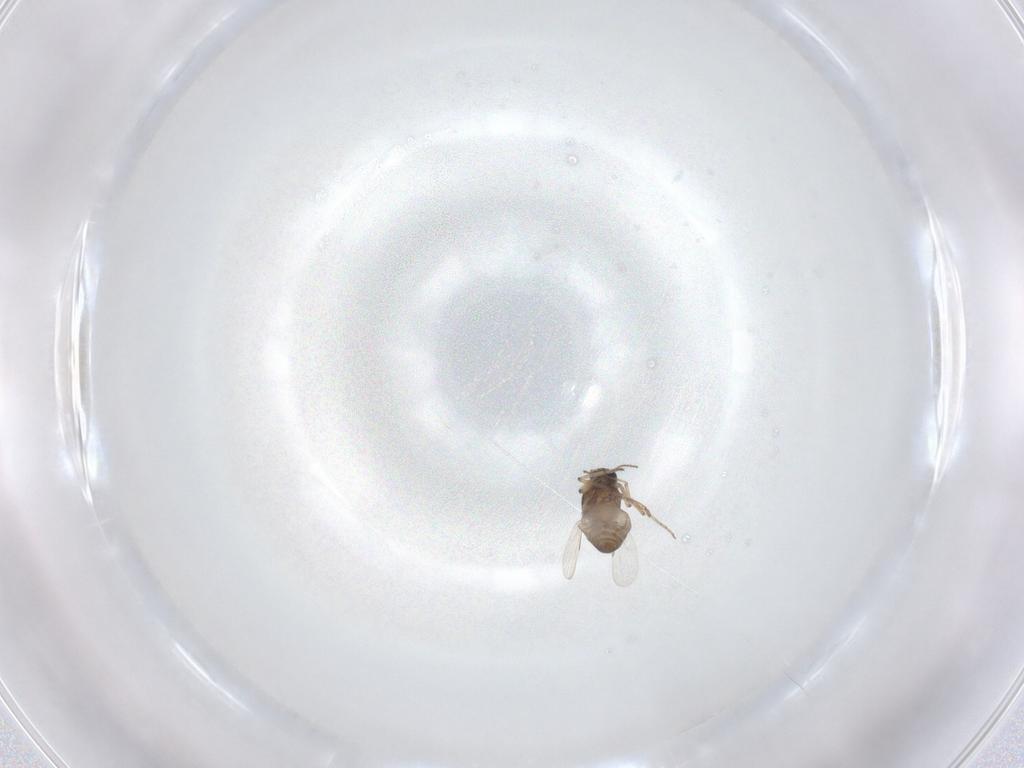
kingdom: Animalia
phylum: Arthropoda
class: Insecta
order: Diptera
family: Ceratopogonidae
